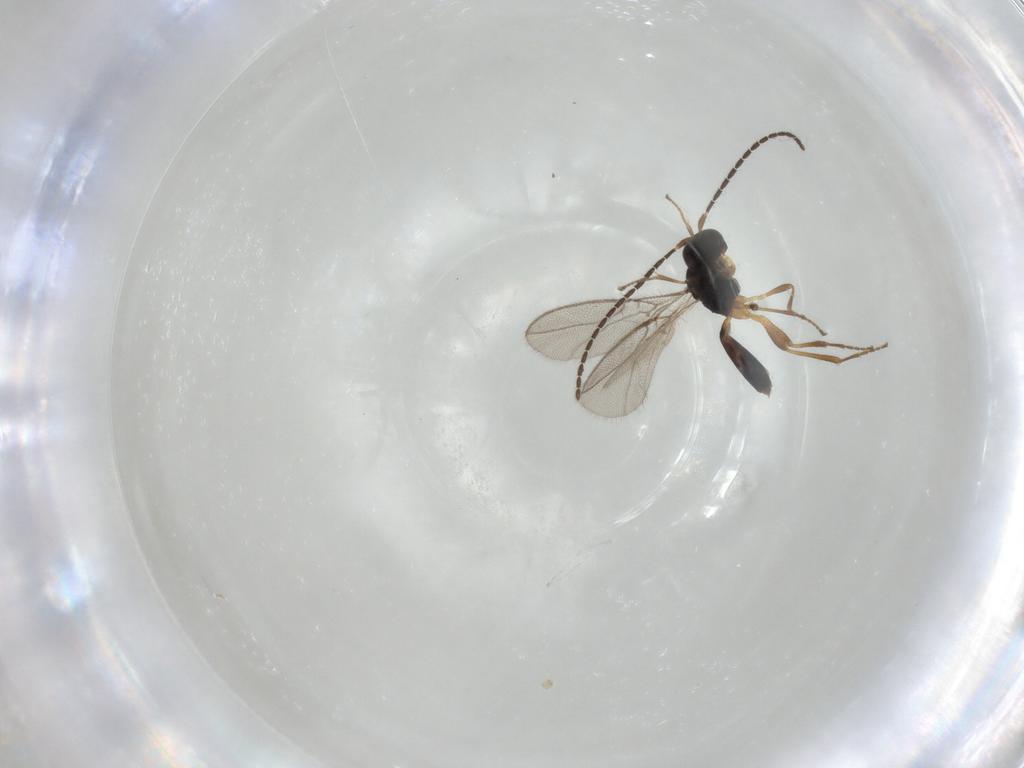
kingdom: Animalia
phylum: Arthropoda
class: Insecta
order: Hymenoptera
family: Braconidae
